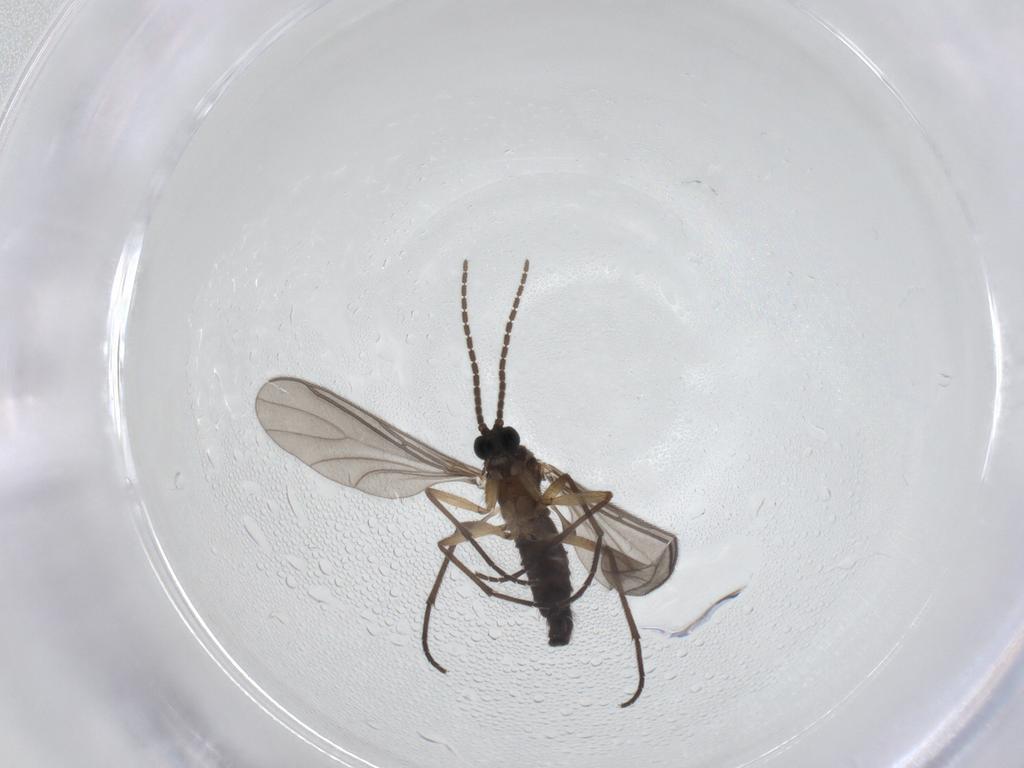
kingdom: Animalia
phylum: Arthropoda
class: Insecta
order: Diptera
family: Sciaridae
